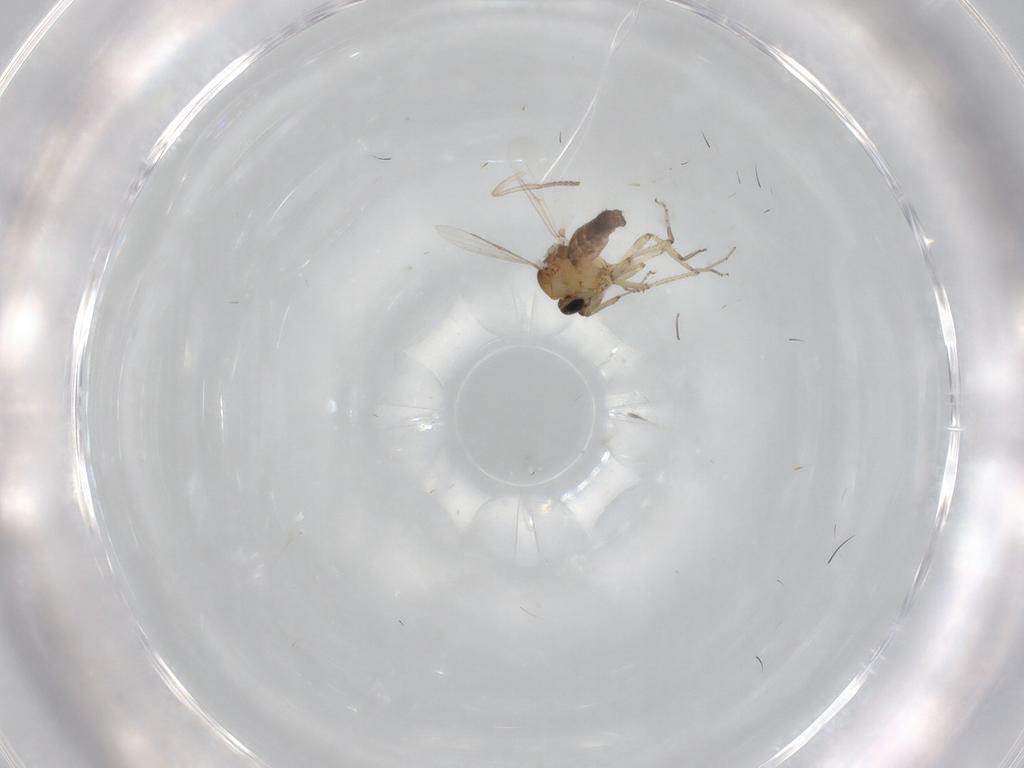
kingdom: Animalia
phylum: Arthropoda
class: Insecta
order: Diptera
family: Ceratopogonidae
